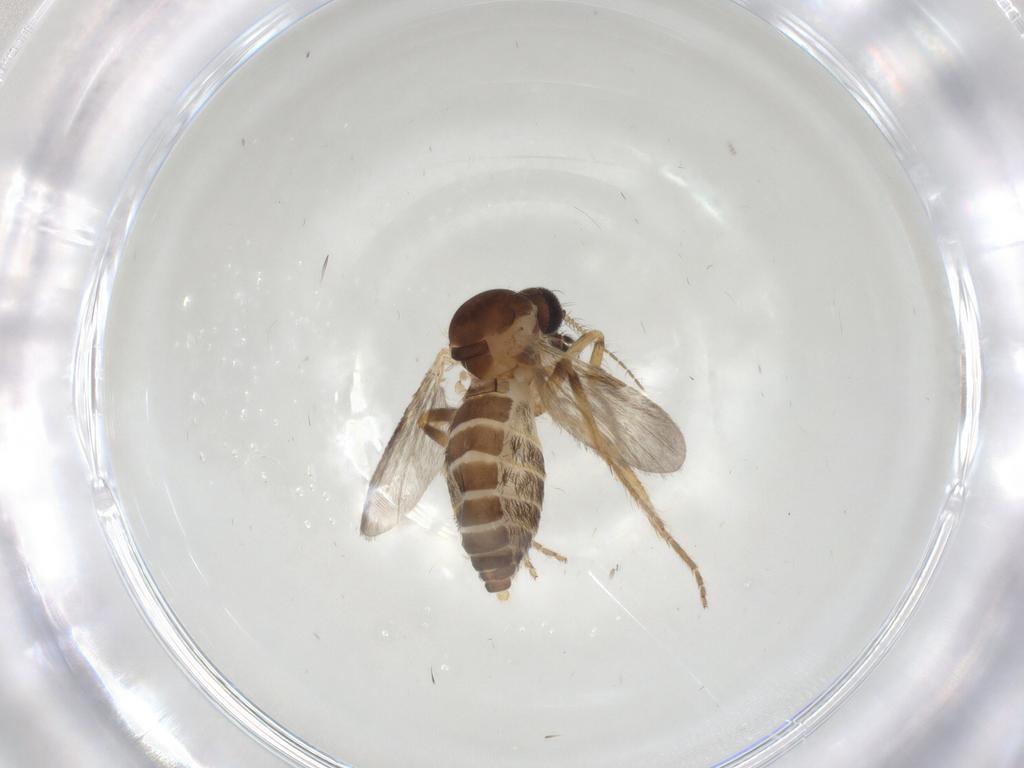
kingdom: Animalia
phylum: Arthropoda
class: Insecta
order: Diptera
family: Ceratopogonidae
